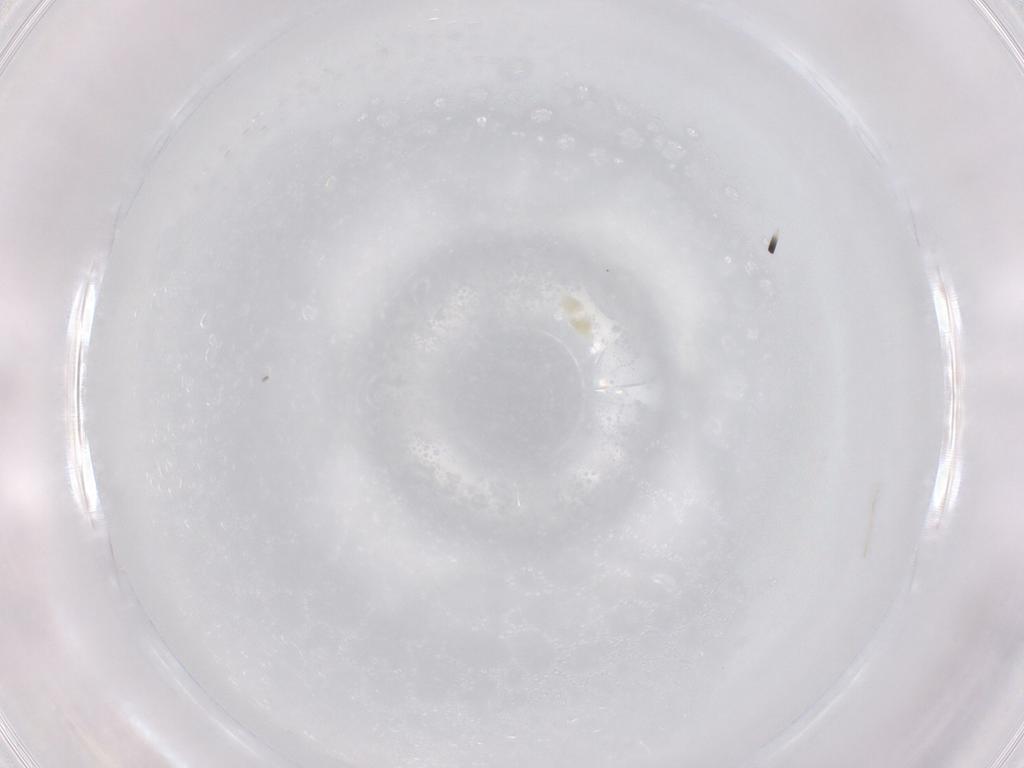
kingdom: Animalia
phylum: Arthropoda
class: Arachnida
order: Trombidiformes
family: Eupodidae
